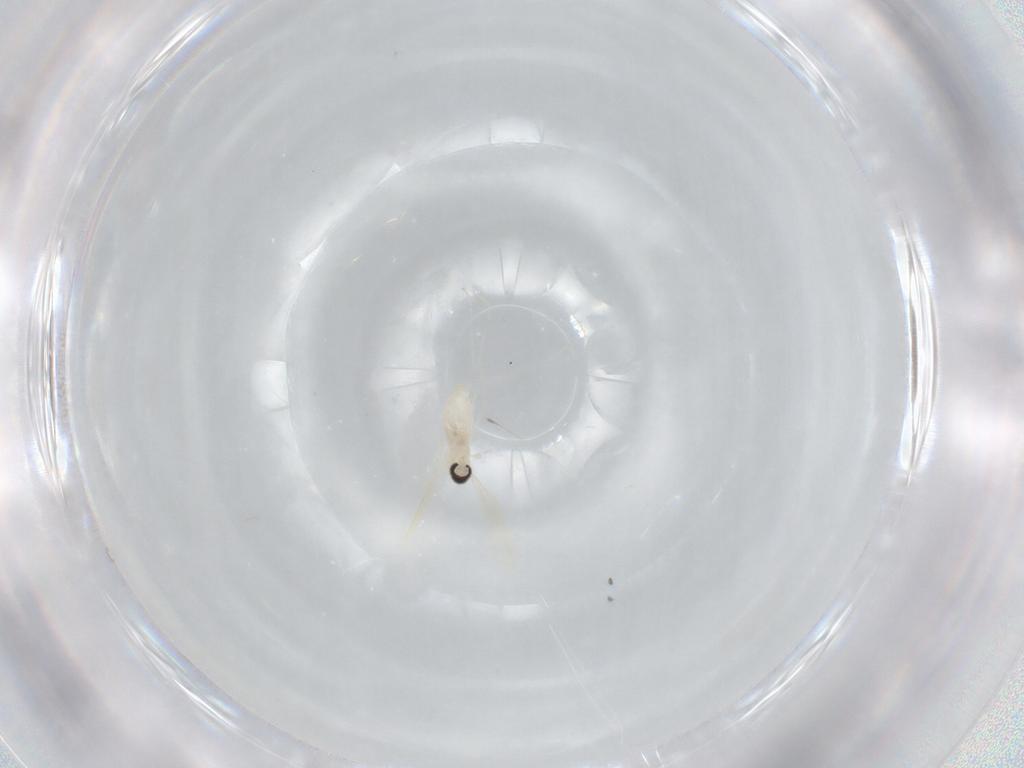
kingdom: Animalia
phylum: Arthropoda
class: Insecta
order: Diptera
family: Cecidomyiidae
